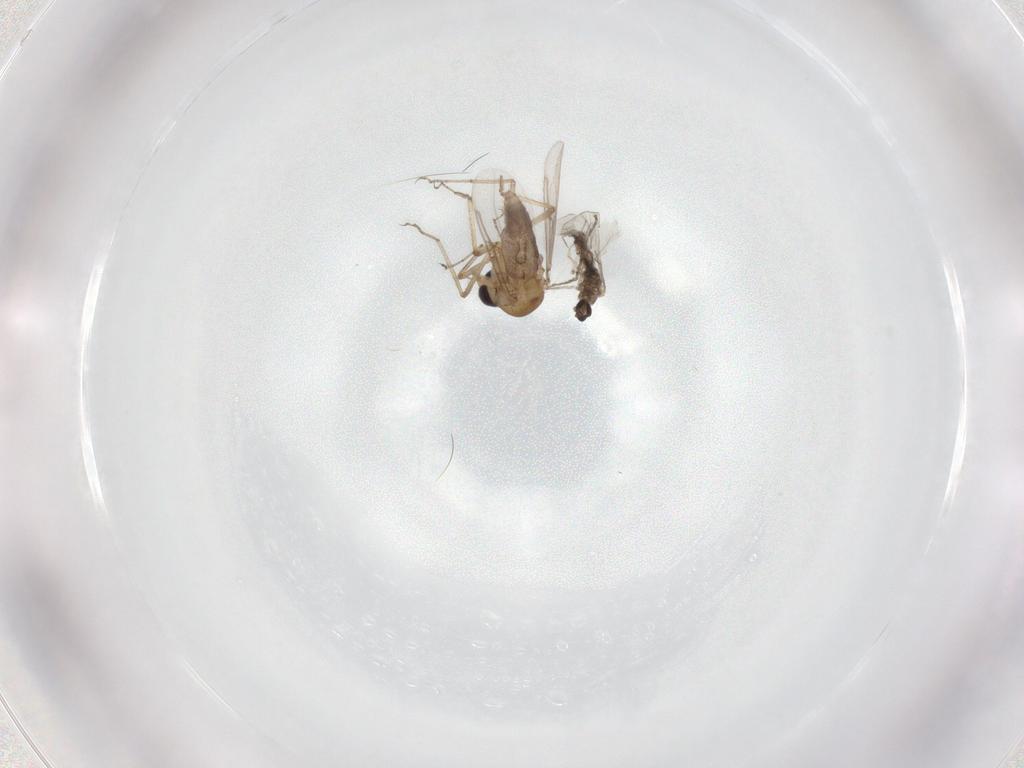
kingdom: Animalia
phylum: Arthropoda
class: Insecta
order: Diptera
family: Cecidomyiidae
